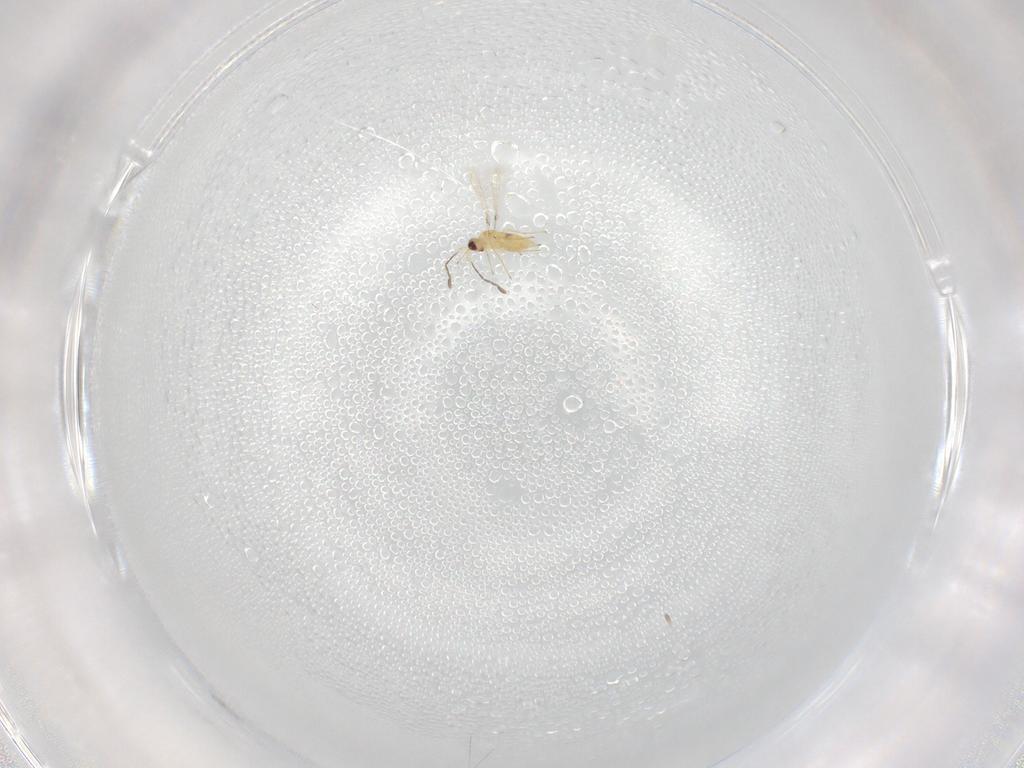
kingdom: Animalia
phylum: Arthropoda
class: Insecta
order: Hymenoptera
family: Mymaridae
